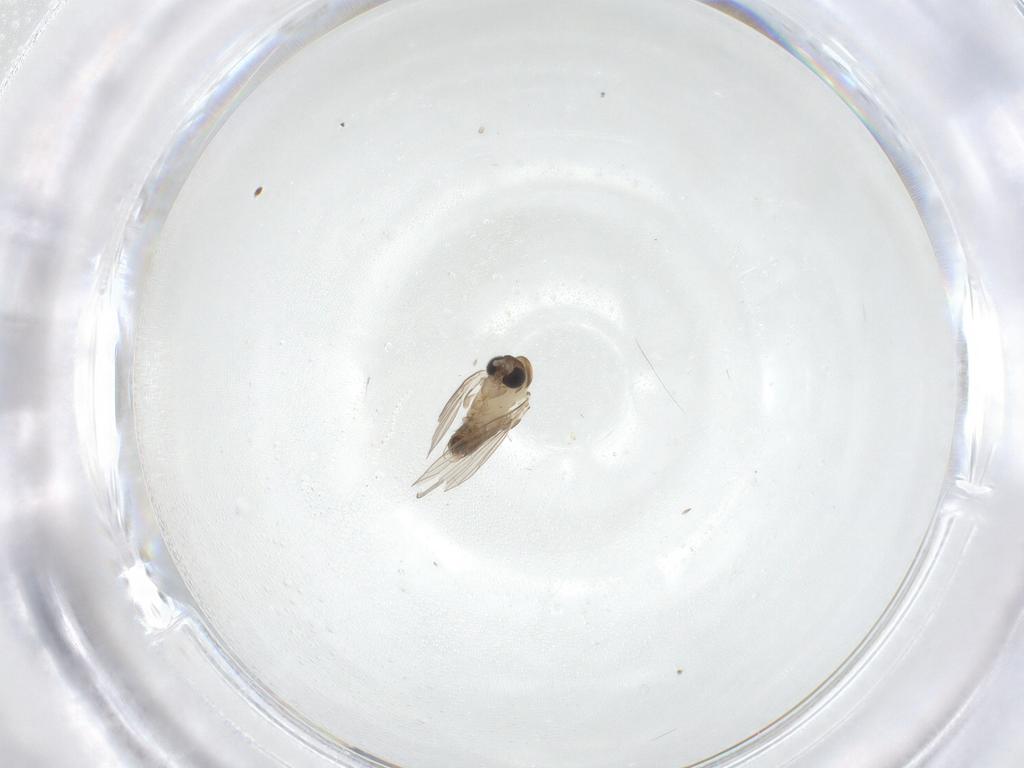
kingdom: Animalia
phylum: Arthropoda
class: Insecta
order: Diptera
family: Psychodidae
